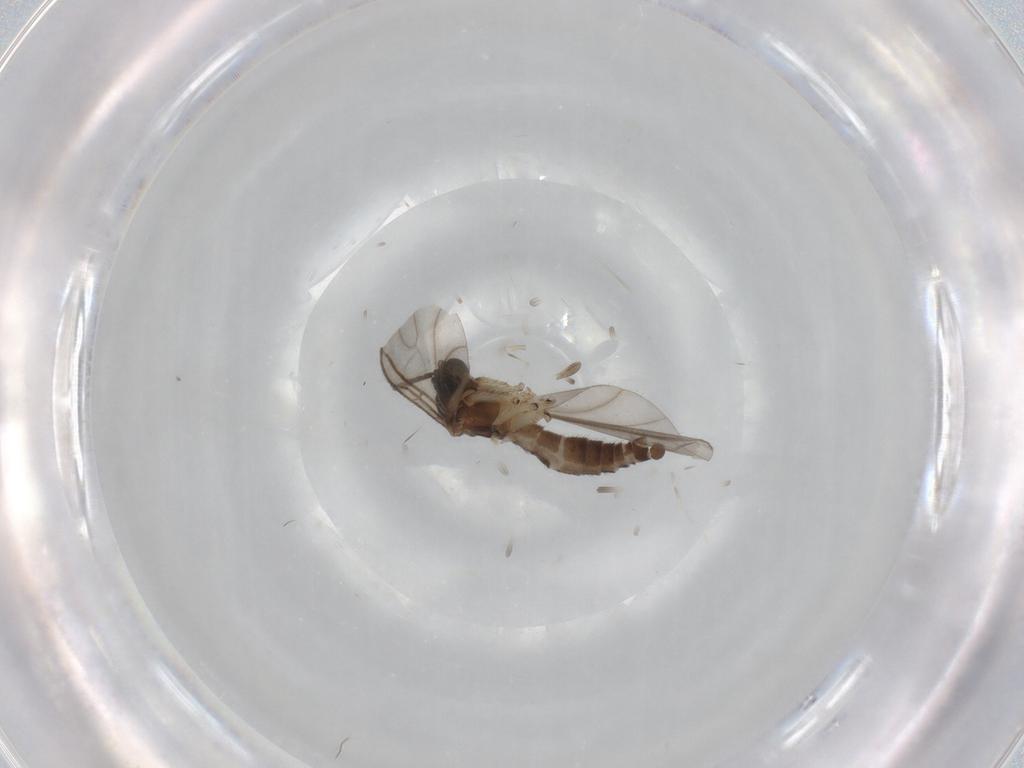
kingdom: Animalia
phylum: Arthropoda
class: Insecta
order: Diptera
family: Sciaridae
